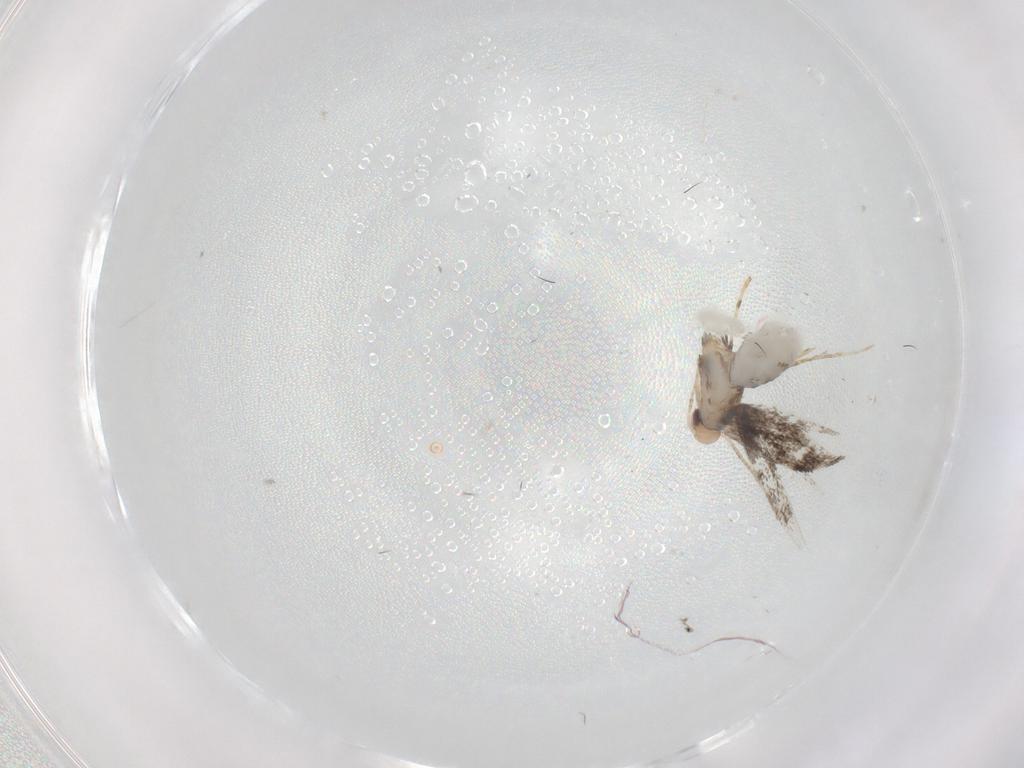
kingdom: Animalia
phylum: Arthropoda
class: Insecta
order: Lepidoptera
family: Gracillariidae
